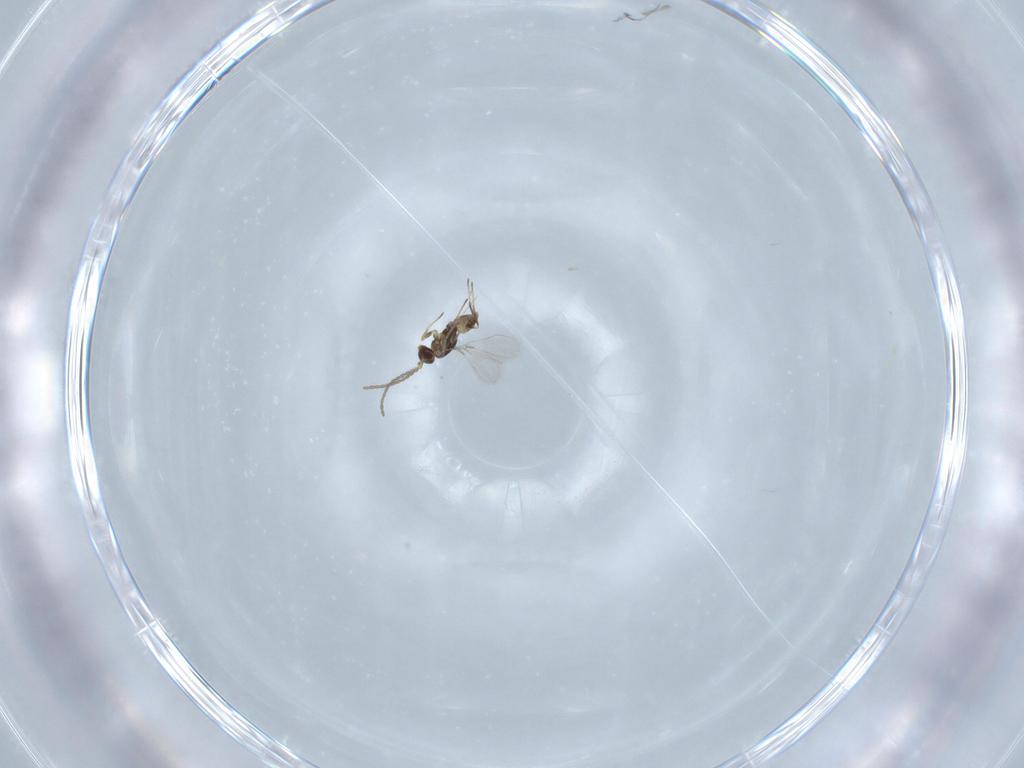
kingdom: Animalia
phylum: Arthropoda
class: Insecta
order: Hymenoptera
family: Mymaridae
